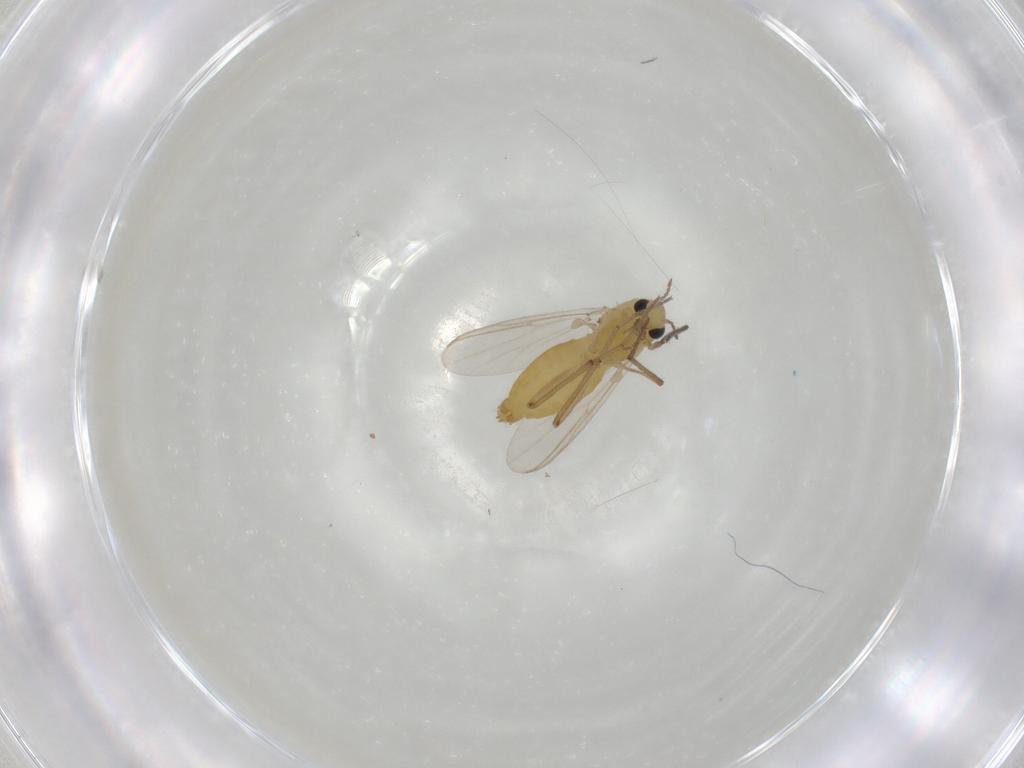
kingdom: Animalia
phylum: Arthropoda
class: Insecta
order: Diptera
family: Chironomidae
